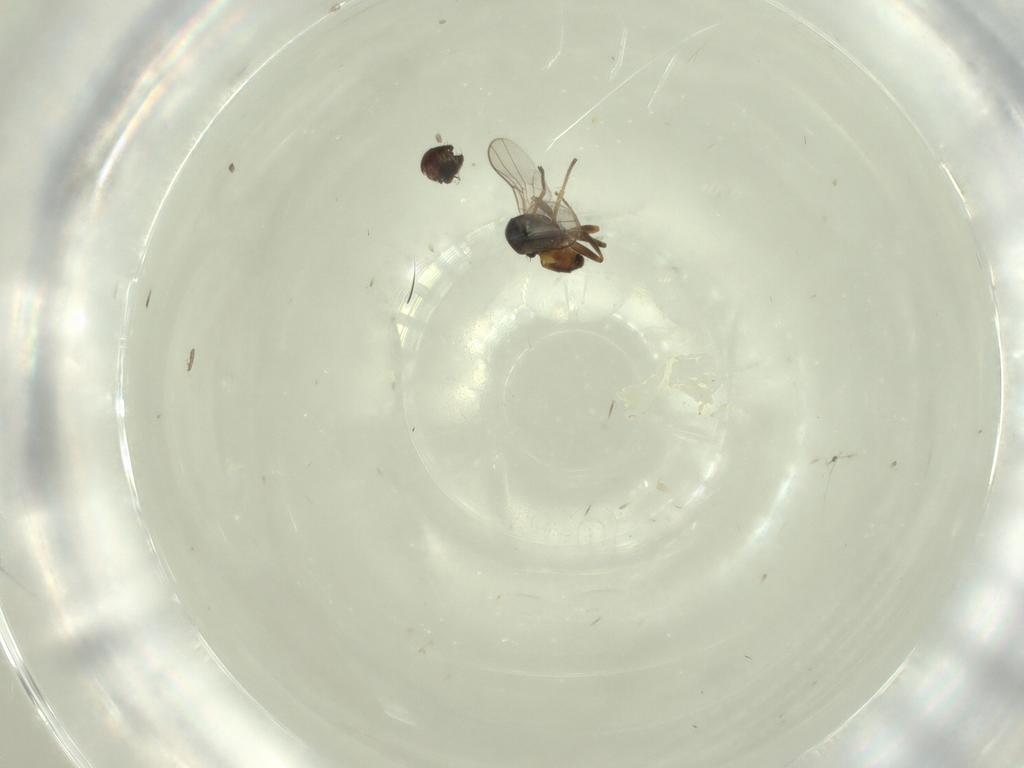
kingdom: Animalia
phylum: Arthropoda
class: Insecta
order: Diptera
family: Chloropidae
